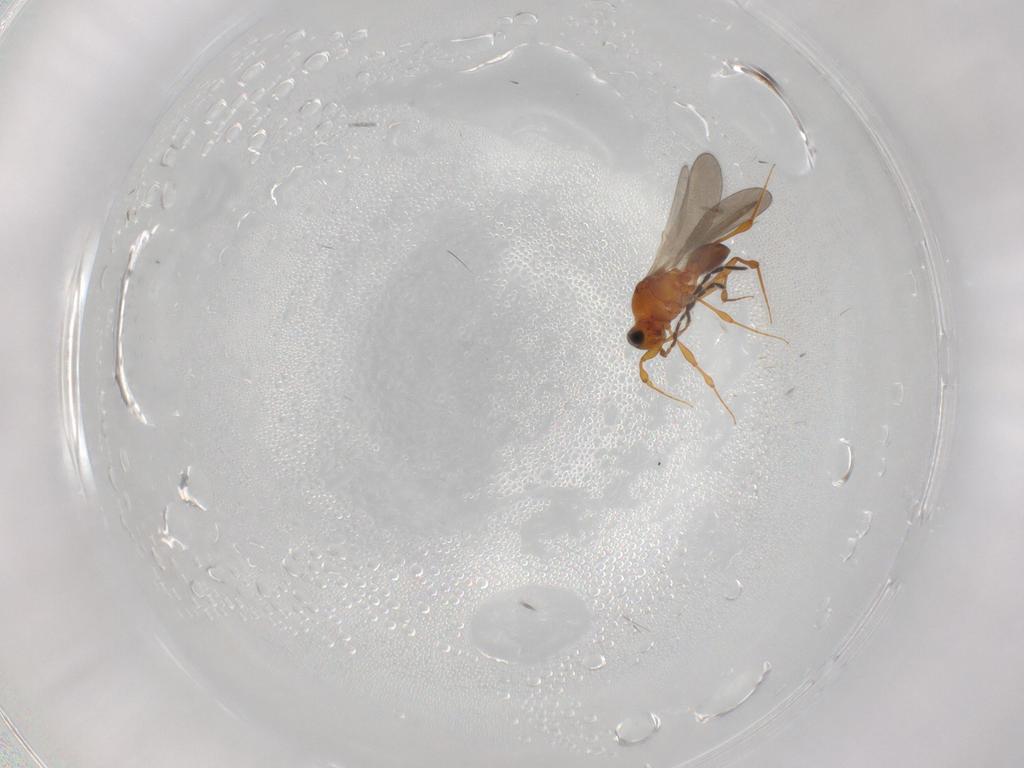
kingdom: Animalia
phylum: Arthropoda
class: Insecta
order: Hymenoptera
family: Platygastridae
